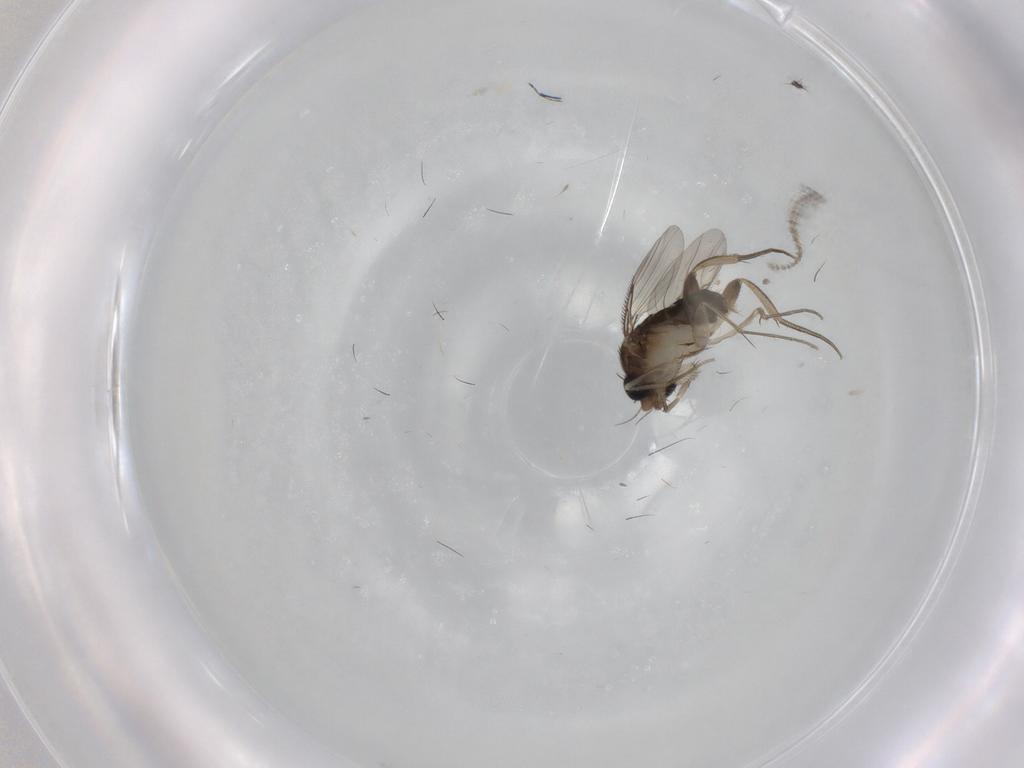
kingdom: Animalia
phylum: Arthropoda
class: Insecta
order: Diptera
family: Phoridae
